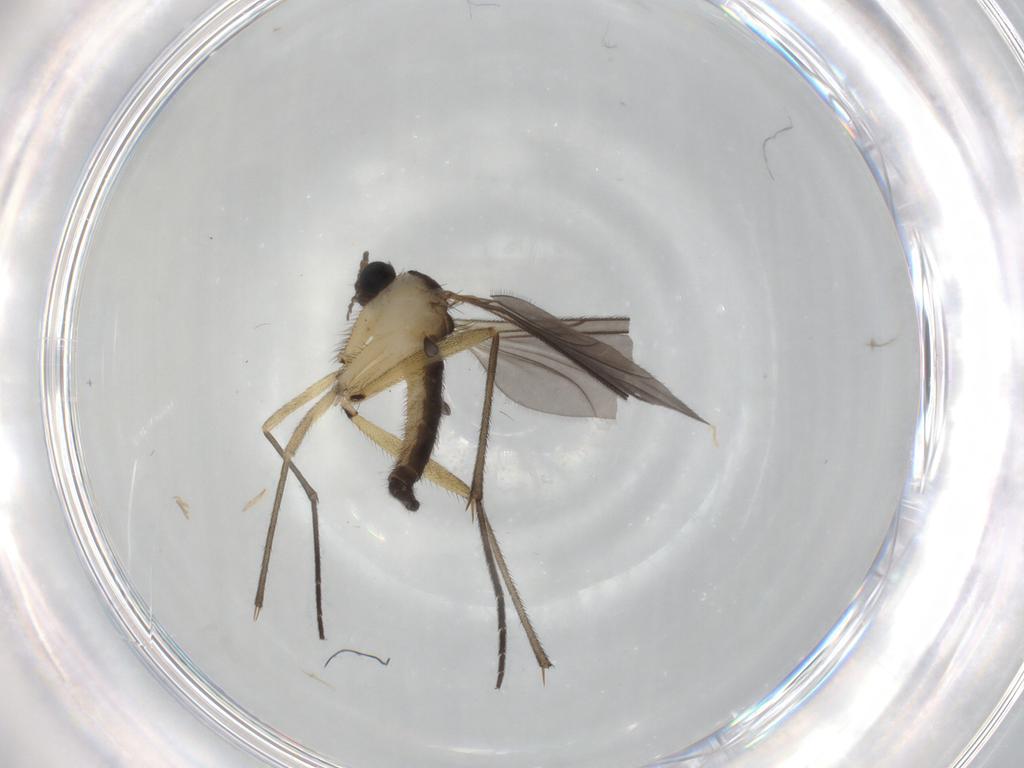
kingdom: Animalia
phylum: Arthropoda
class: Insecta
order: Diptera
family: Sciaridae
